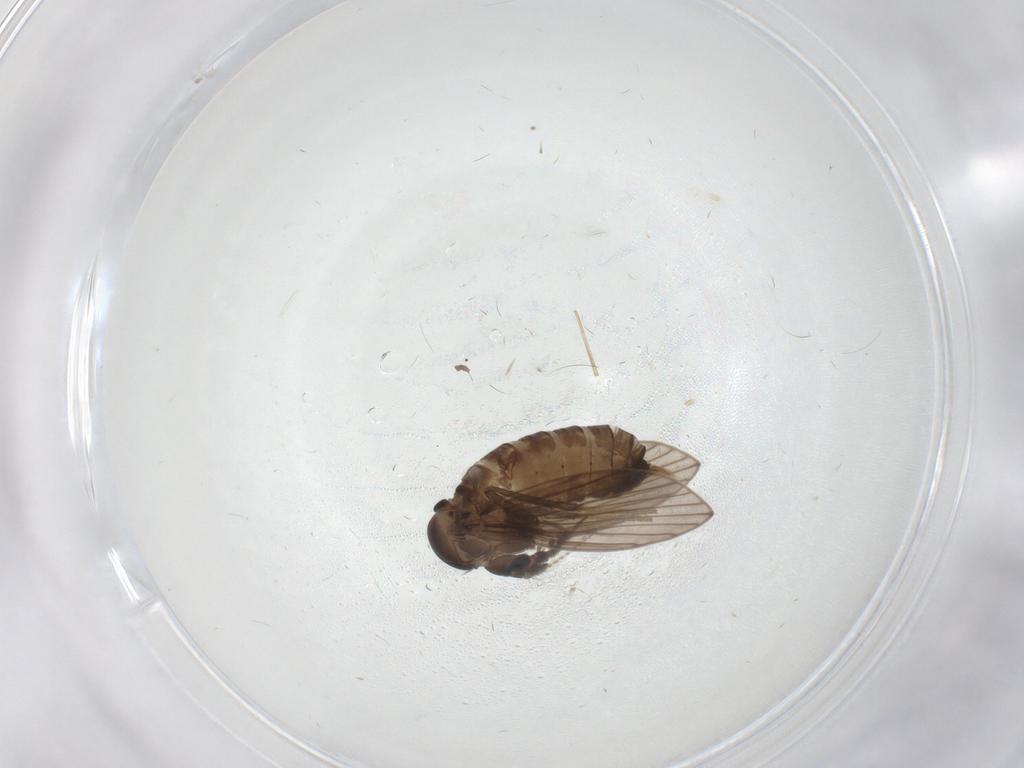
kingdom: Animalia
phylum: Arthropoda
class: Insecta
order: Diptera
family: Psychodidae
